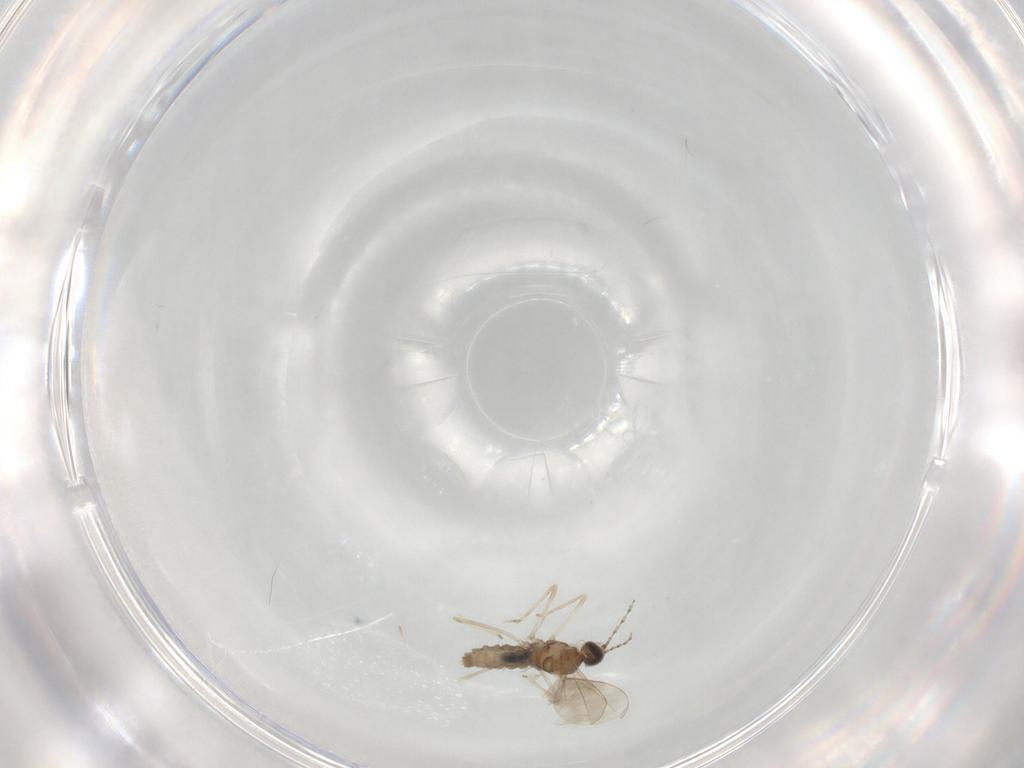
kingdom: Animalia
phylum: Arthropoda
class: Insecta
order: Diptera
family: Cecidomyiidae
